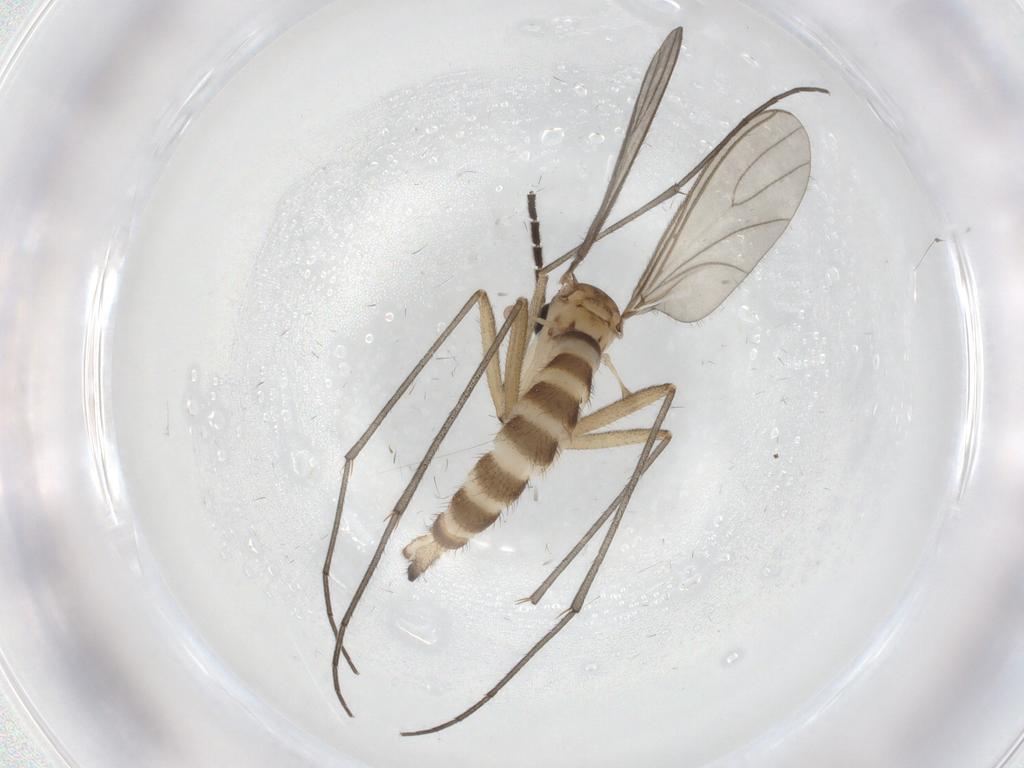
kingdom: Animalia
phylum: Arthropoda
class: Insecta
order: Diptera
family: Sciaridae
